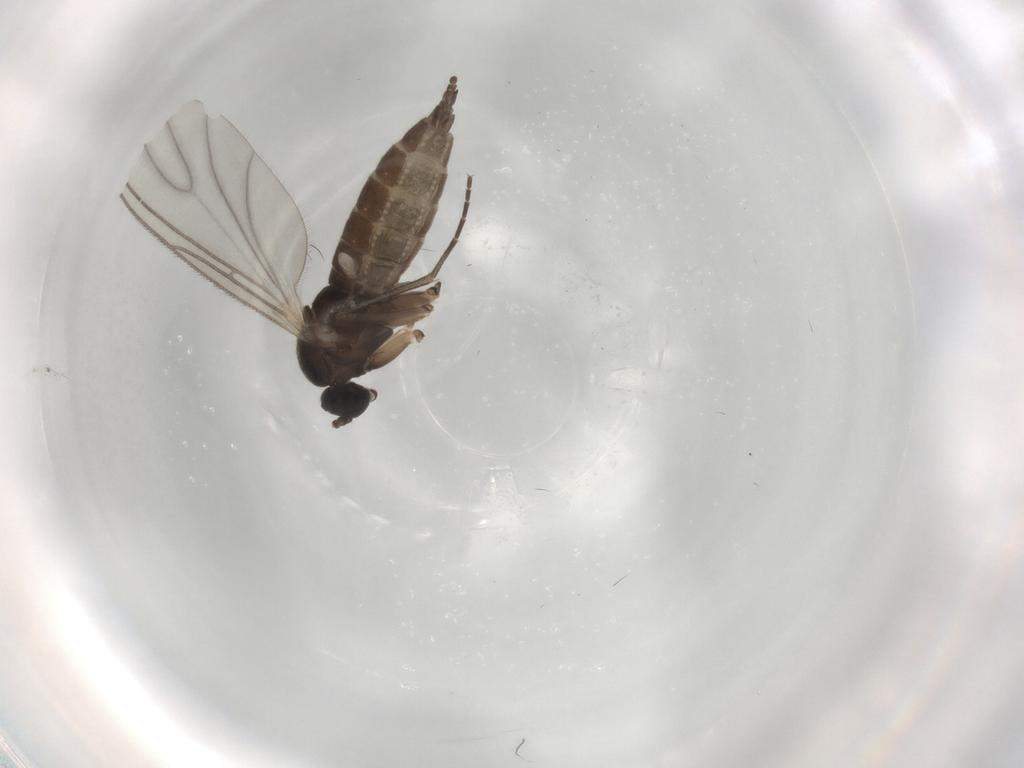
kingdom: Animalia
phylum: Arthropoda
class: Insecta
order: Diptera
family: Sciaridae
